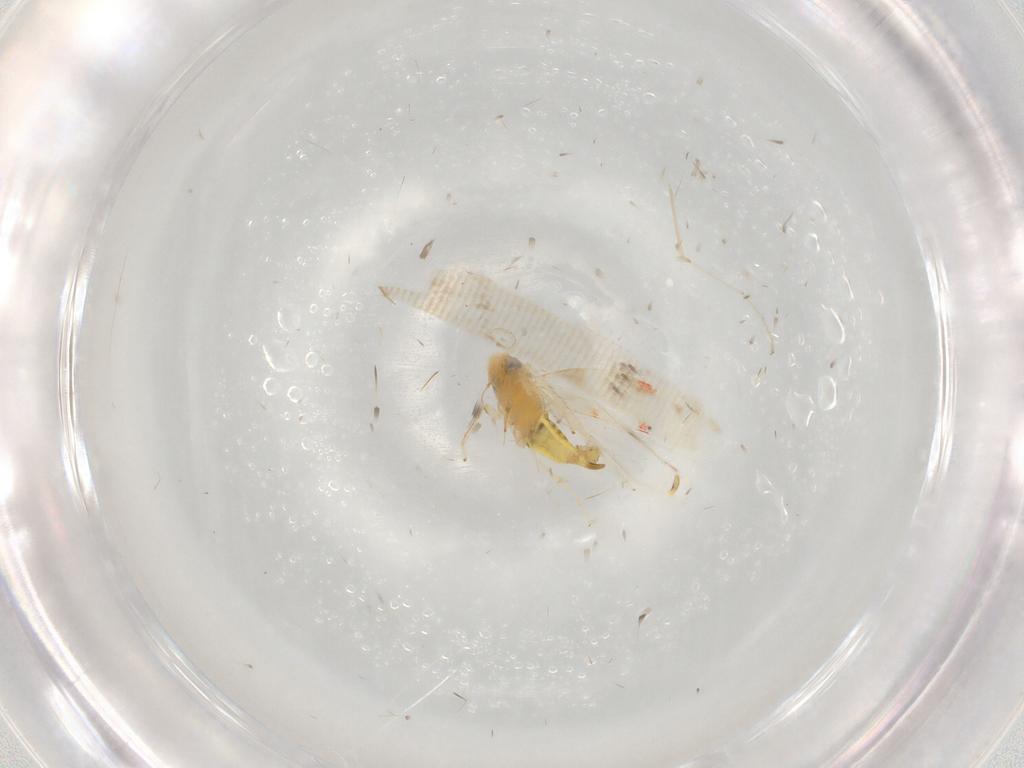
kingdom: Animalia
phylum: Arthropoda
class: Insecta
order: Hemiptera
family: Cicadellidae
